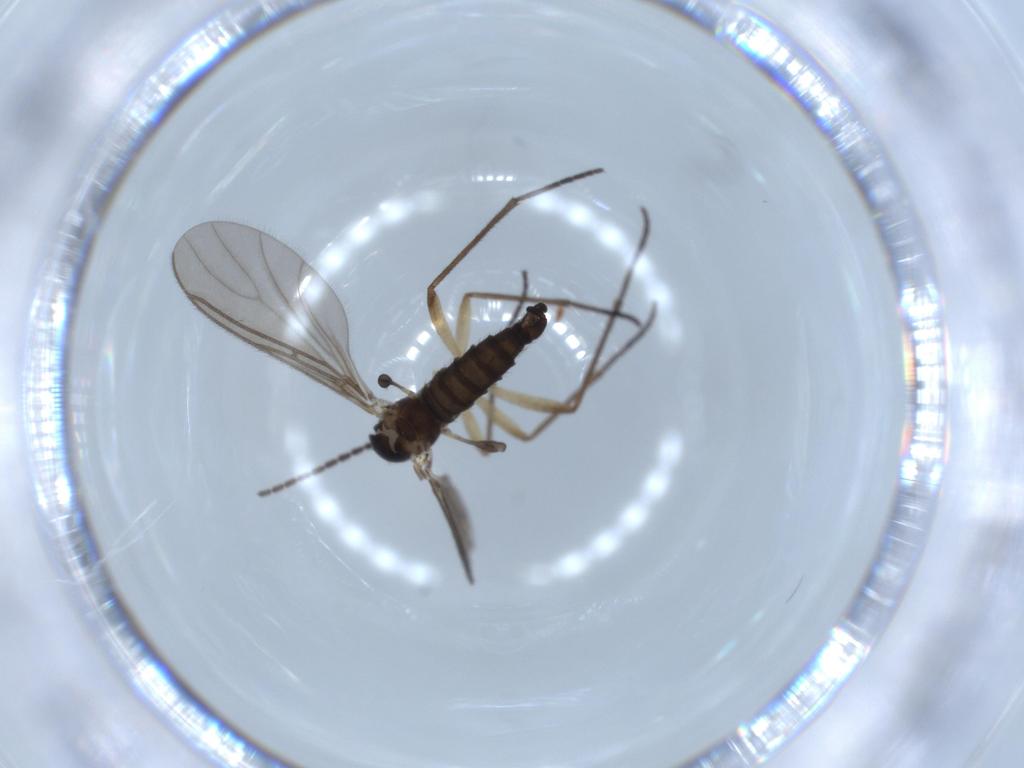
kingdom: Animalia
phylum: Arthropoda
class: Insecta
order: Diptera
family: Sciaridae
